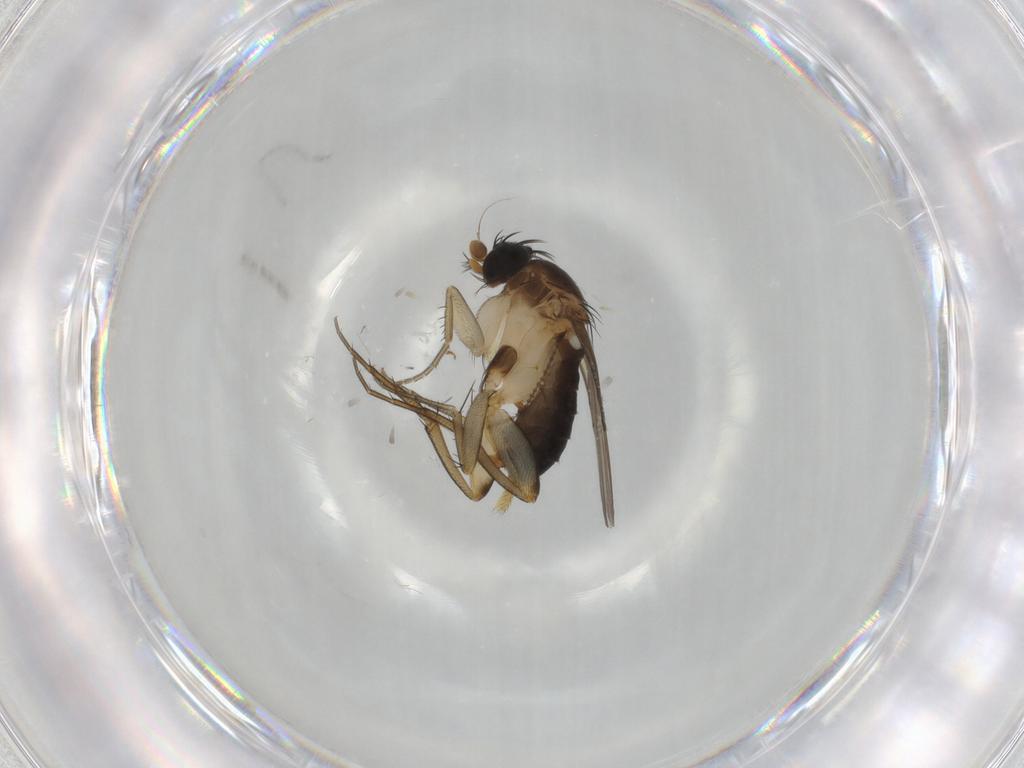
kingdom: Animalia
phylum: Arthropoda
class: Insecta
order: Diptera
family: Phoridae
